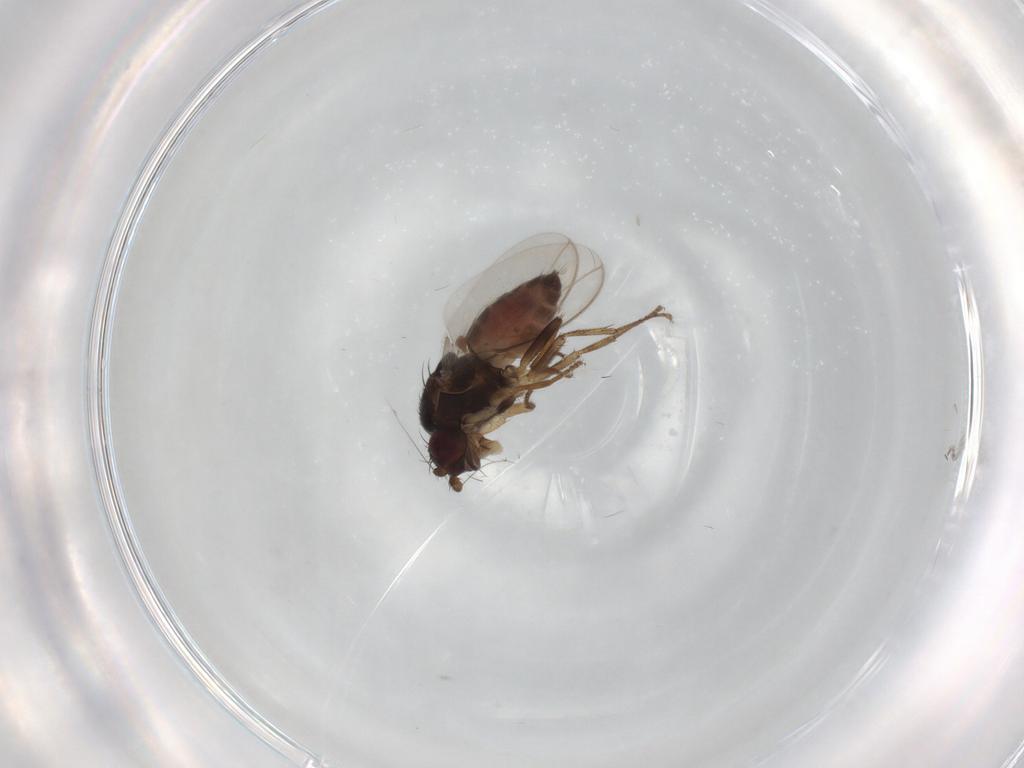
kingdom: Animalia
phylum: Arthropoda
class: Insecta
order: Diptera
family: Sphaeroceridae
